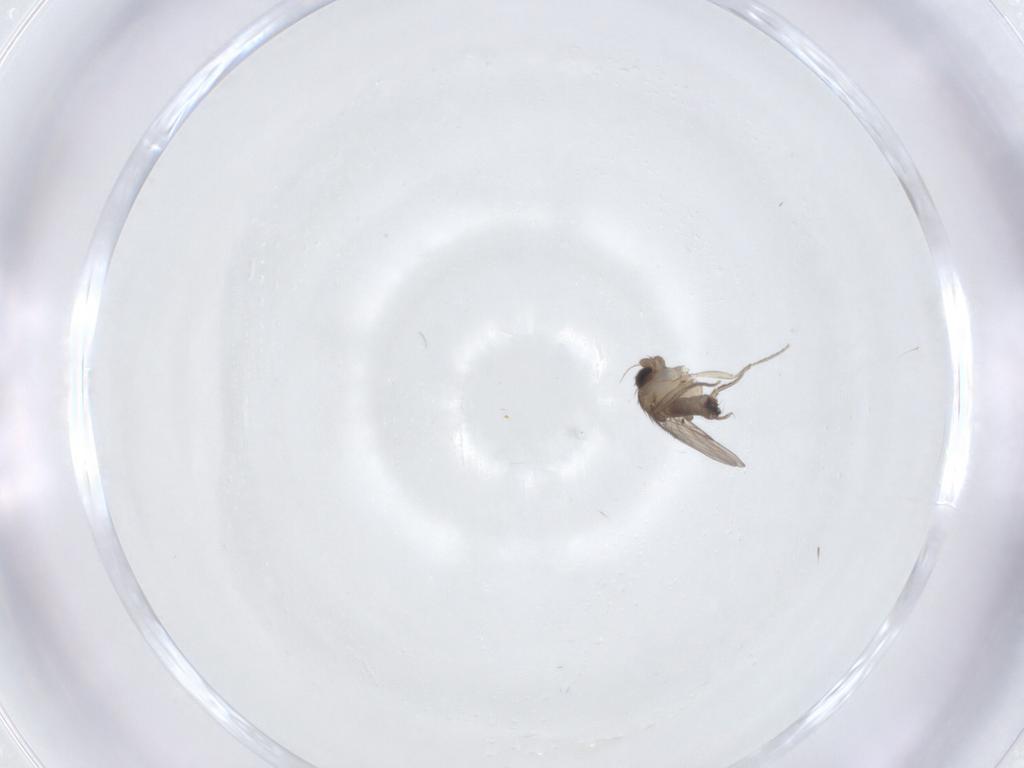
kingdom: Animalia
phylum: Arthropoda
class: Insecta
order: Diptera
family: Phoridae
